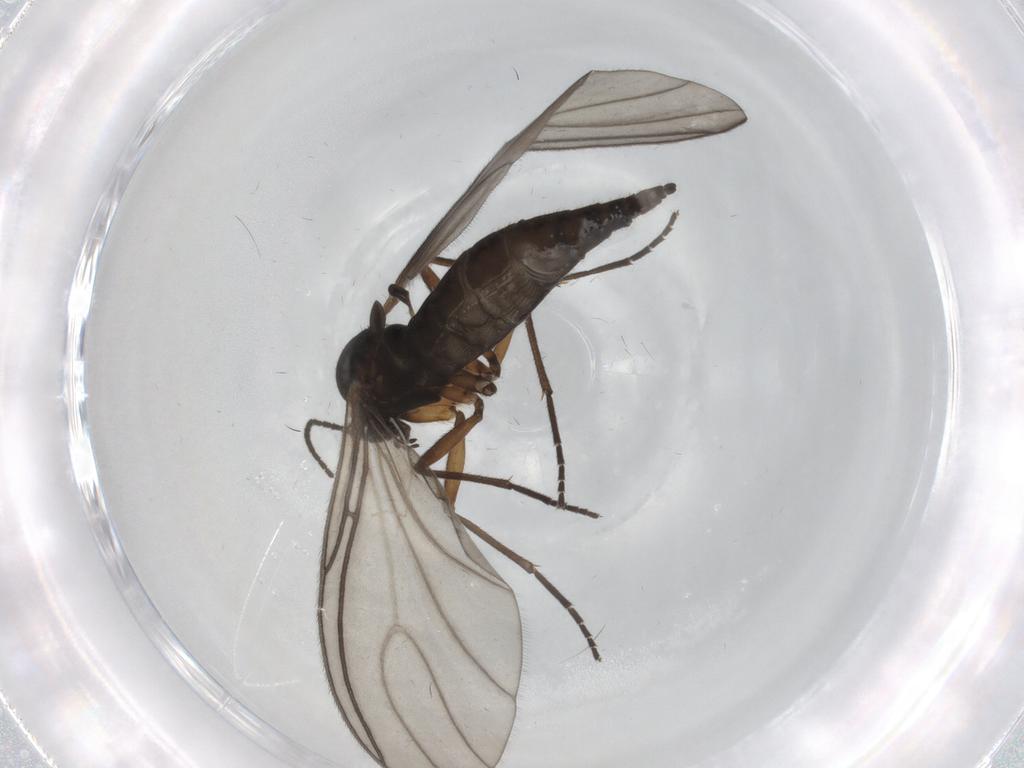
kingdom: Animalia
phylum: Arthropoda
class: Insecta
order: Diptera
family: Sciaridae
